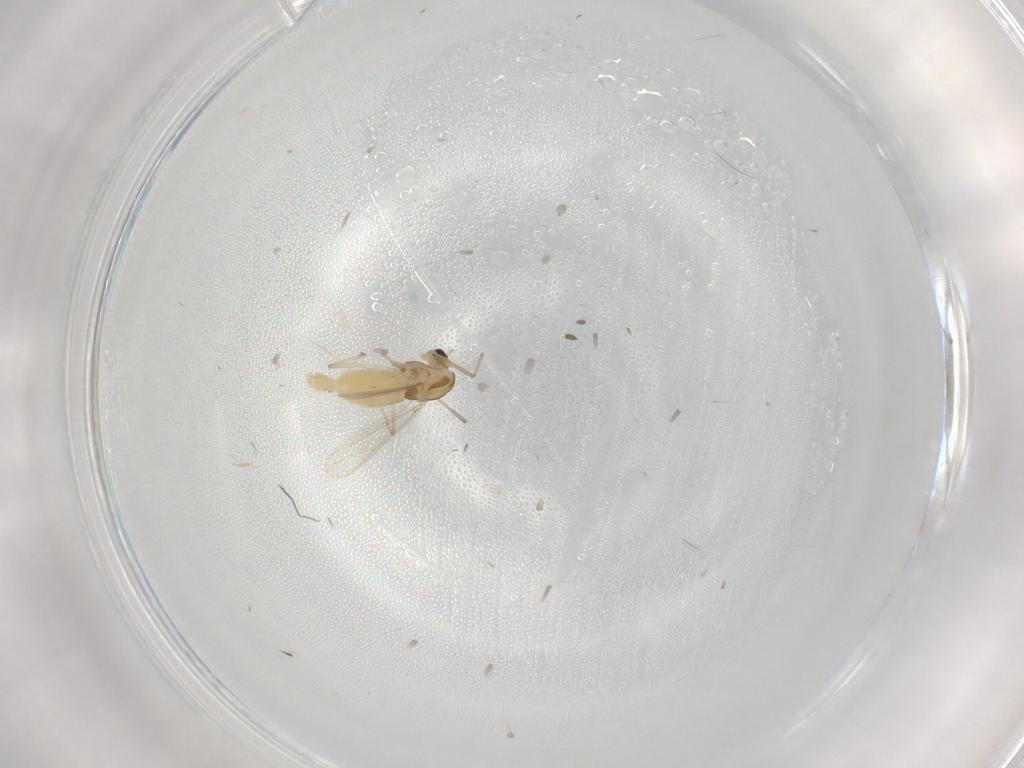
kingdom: Animalia
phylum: Arthropoda
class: Insecta
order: Diptera
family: Chironomidae
